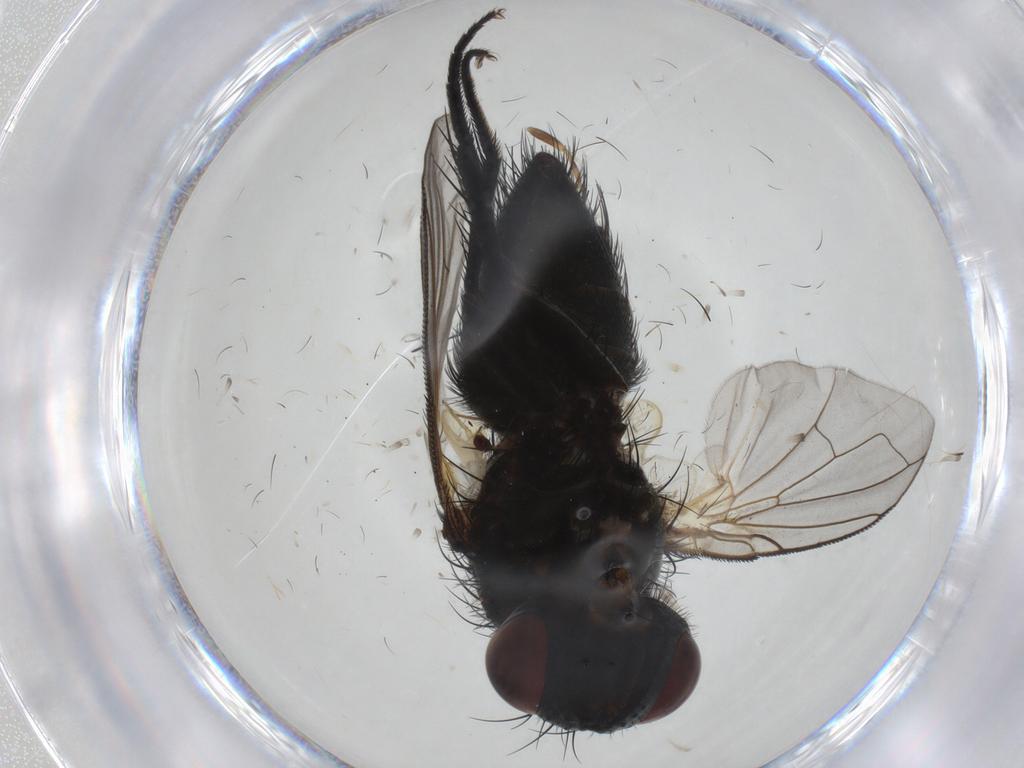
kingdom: Animalia
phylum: Arthropoda
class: Insecta
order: Diptera
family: Tachinidae
